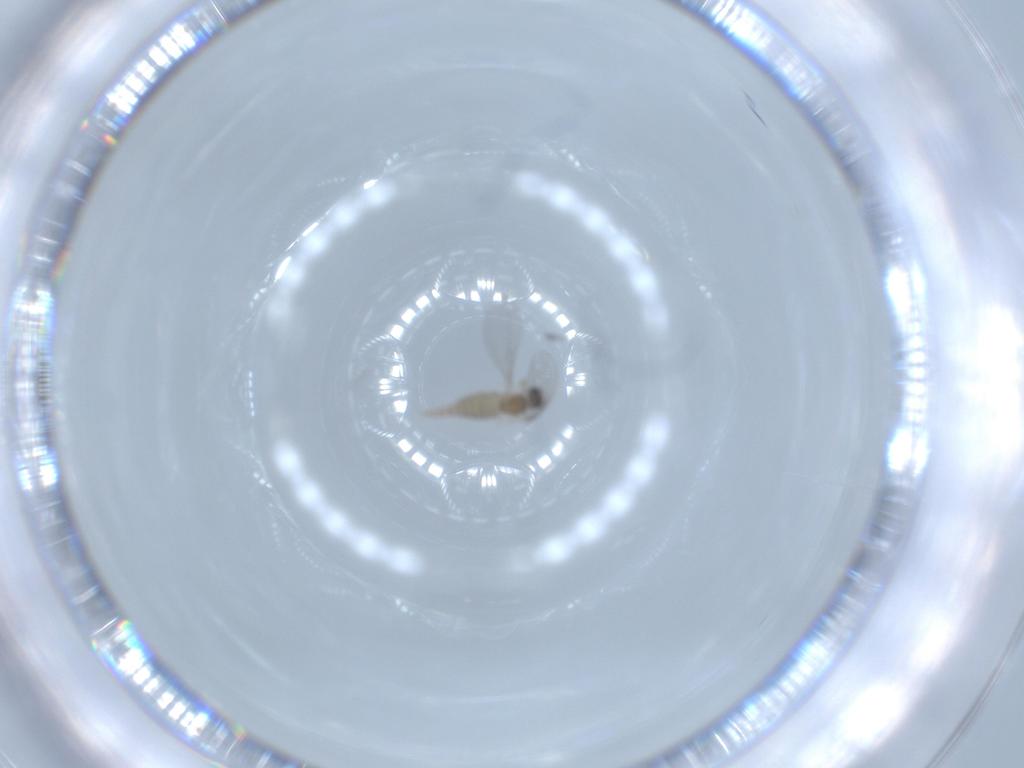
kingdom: Animalia
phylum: Arthropoda
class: Insecta
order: Diptera
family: Cecidomyiidae
